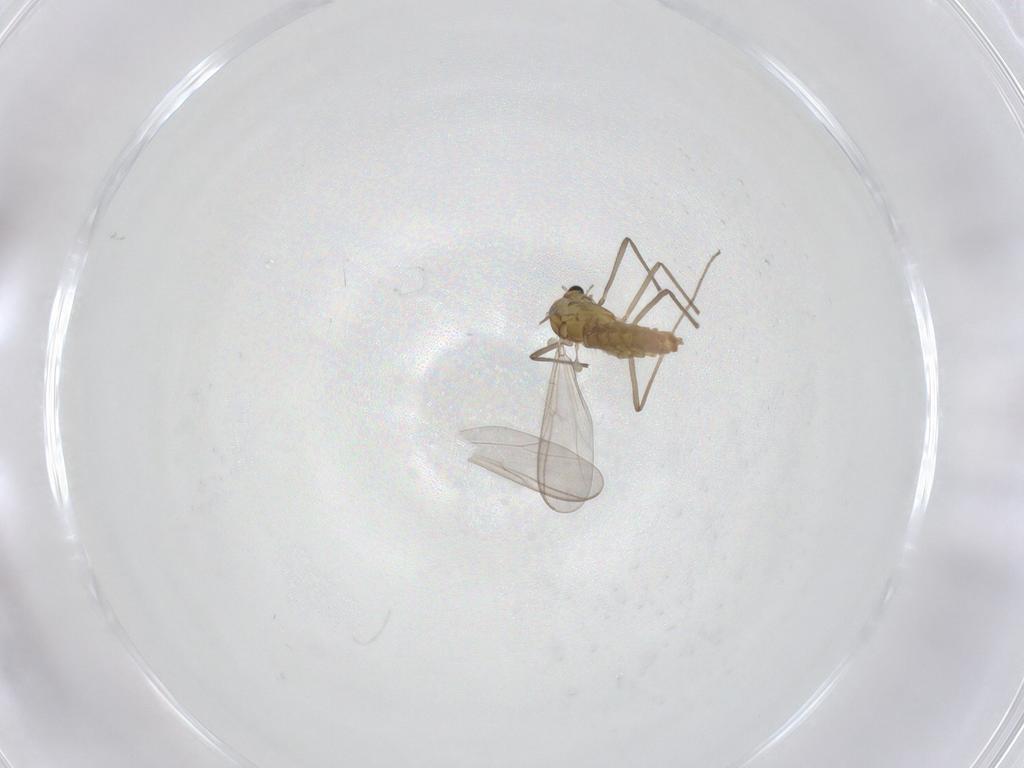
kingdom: Animalia
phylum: Arthropoda
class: Insecta
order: Diptera
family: Chironomidae
